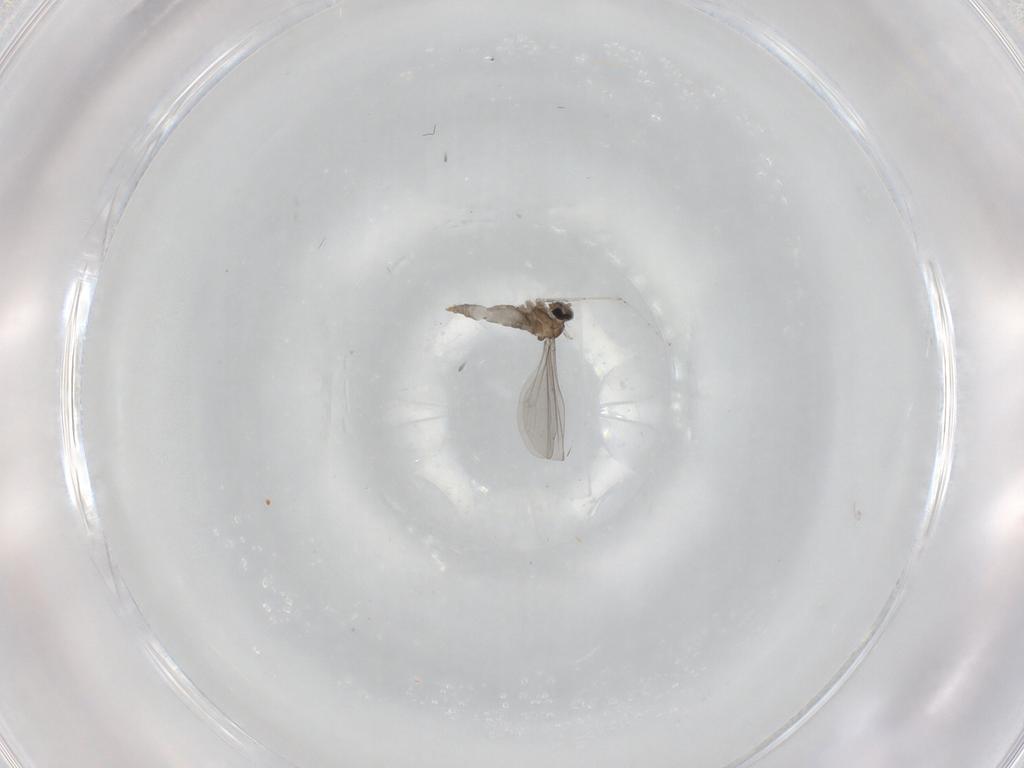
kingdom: Animalia
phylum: Arthropoda
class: Insecta
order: Diptera
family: Cecidomyiidae
